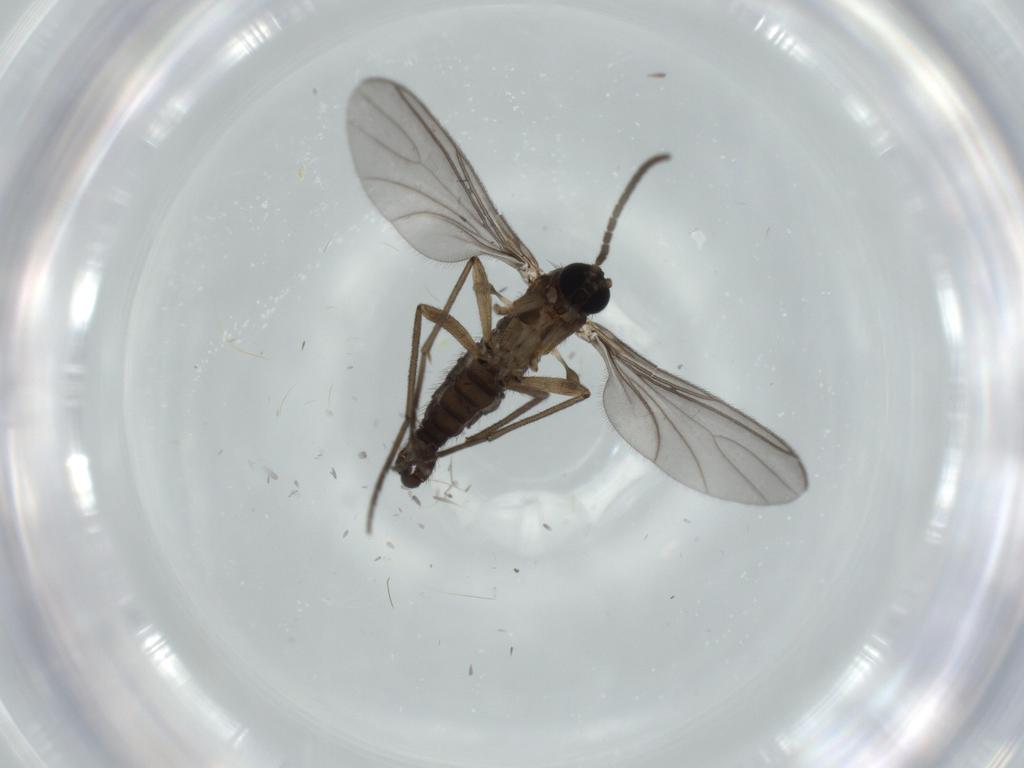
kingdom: Animalia
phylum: Arthropoda
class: Insecta
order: Diptera
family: Sciaridae
